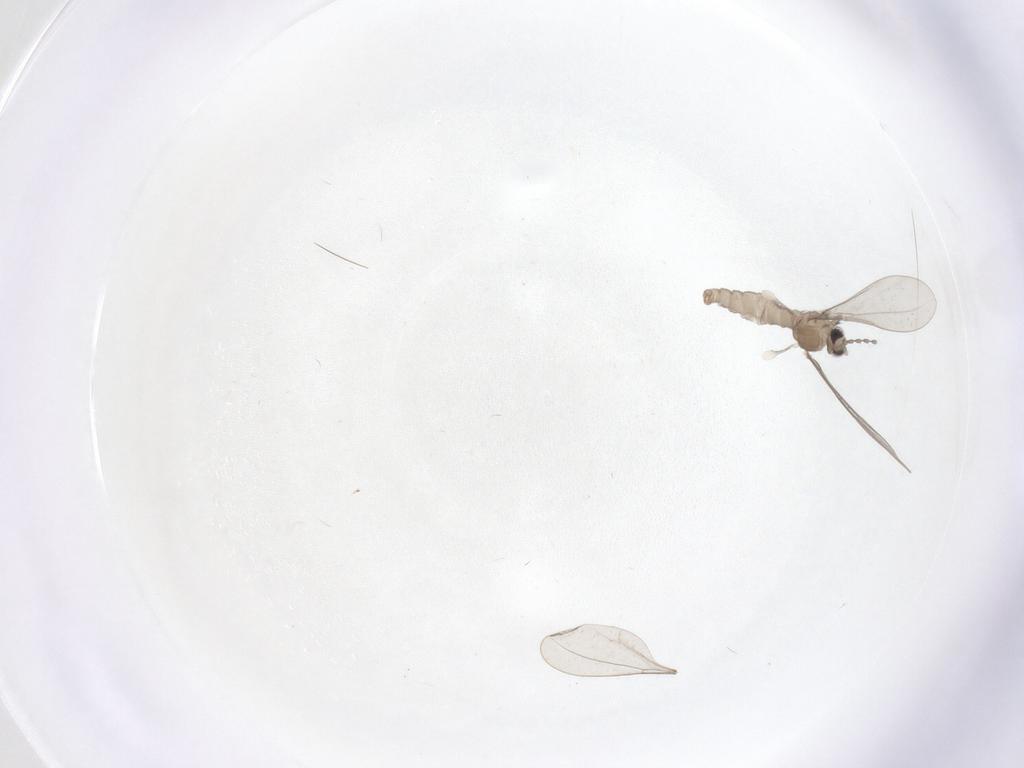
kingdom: Animalia
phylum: Arthropoda
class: Insecta
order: Diptera
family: Cecidomyiidae
